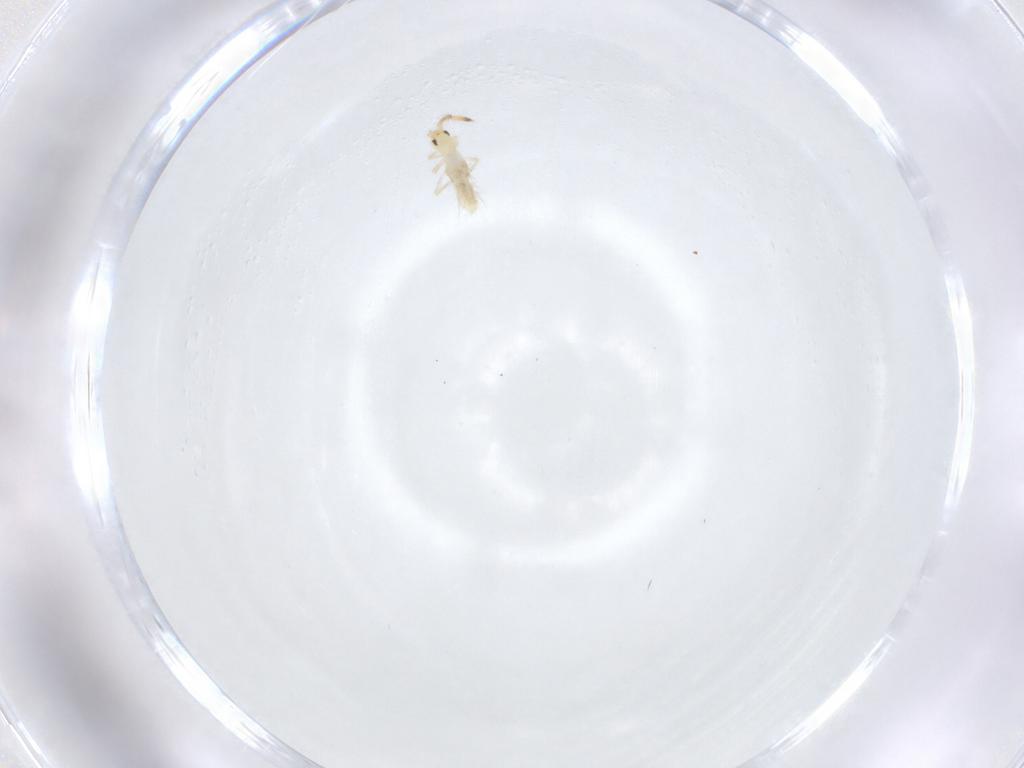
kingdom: Animalia
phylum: Arthropoda
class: Collembola
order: Entomobryomorpha
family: Entomobryidae
